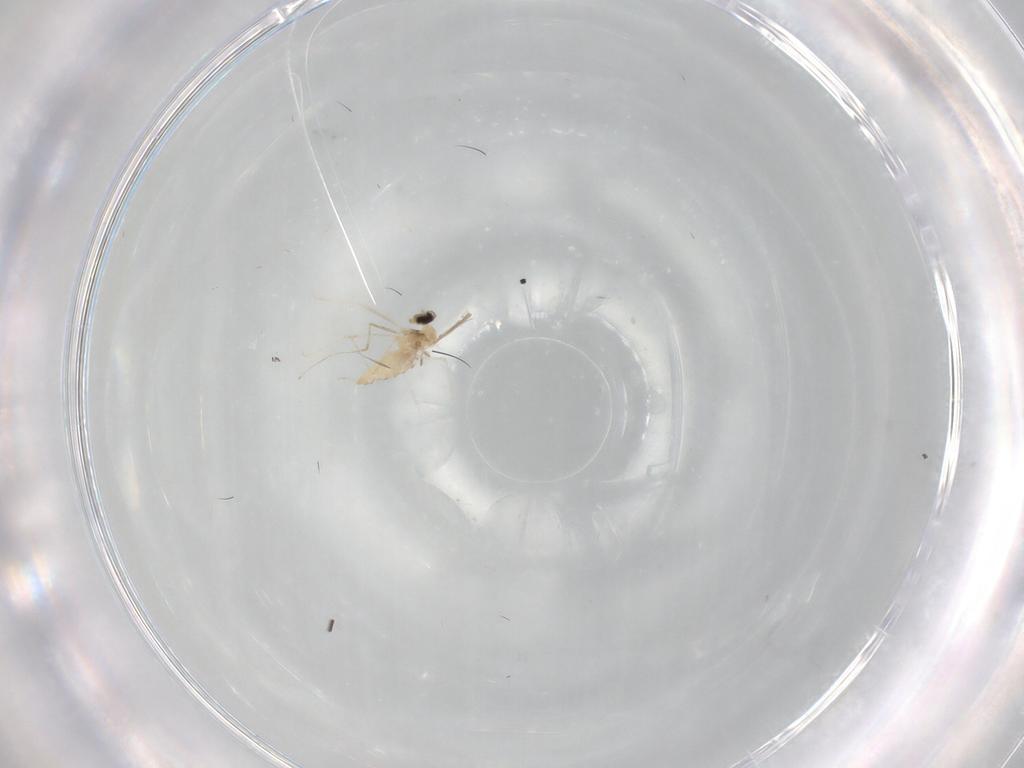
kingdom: Animalia
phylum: Arthropoda
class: Insecta
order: Diptera
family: Cecidomyiidae
